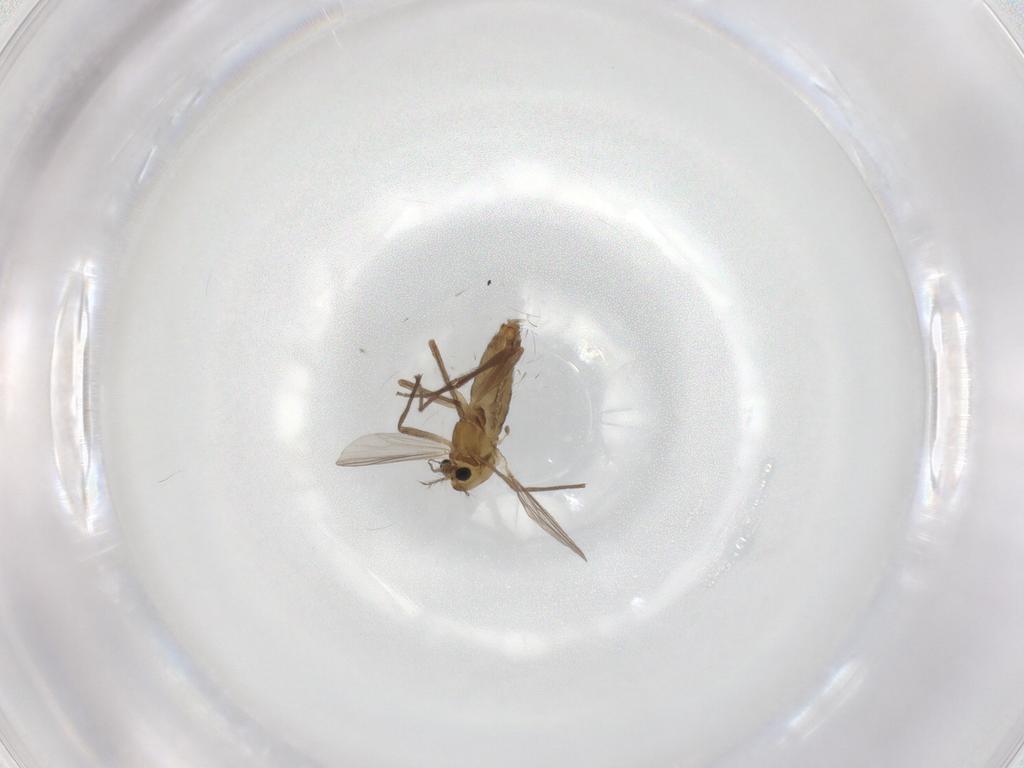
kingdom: Animalia
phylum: Arthropoda
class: Insecta
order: Diptera
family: Chironomidae
